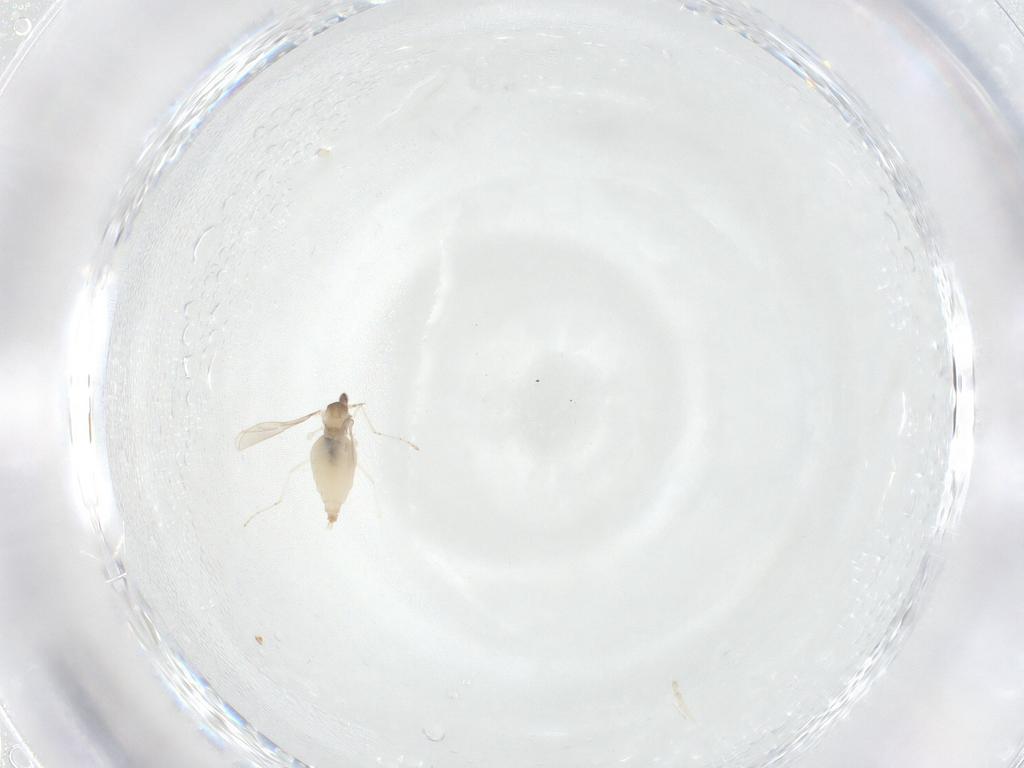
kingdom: Animalia
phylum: Arthropoda
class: Insecta
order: Diptera
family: Cecidomyiidae
